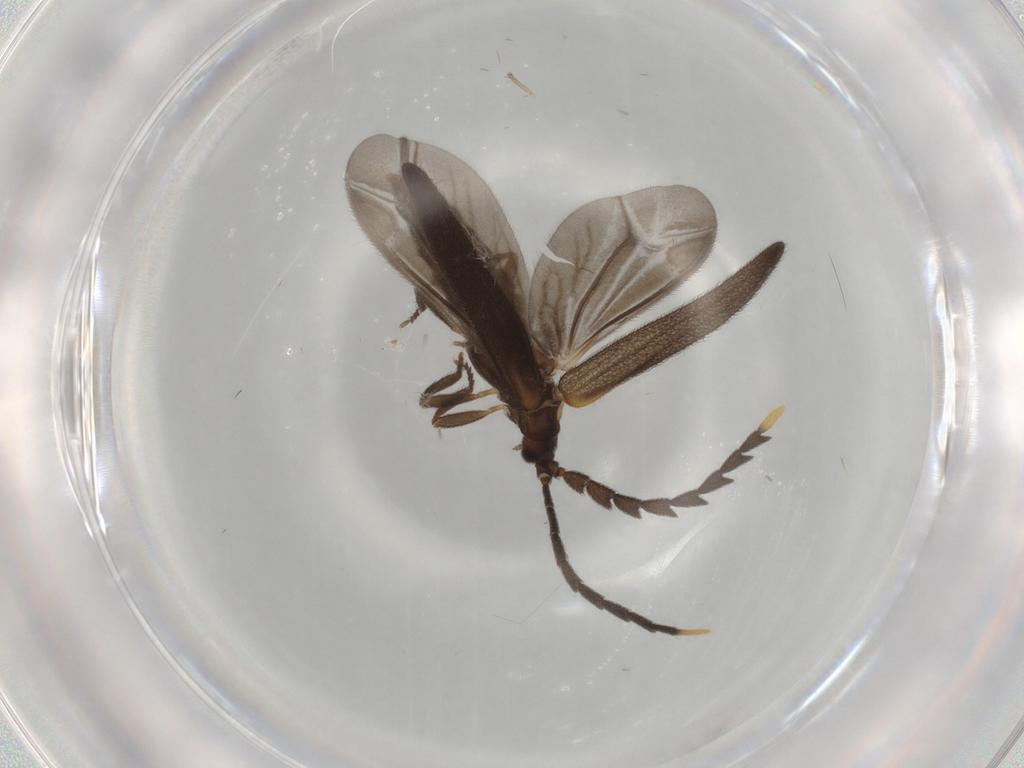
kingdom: Animalia
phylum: Arthropoda
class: Insecta
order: Coleoptera
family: Lycidae
